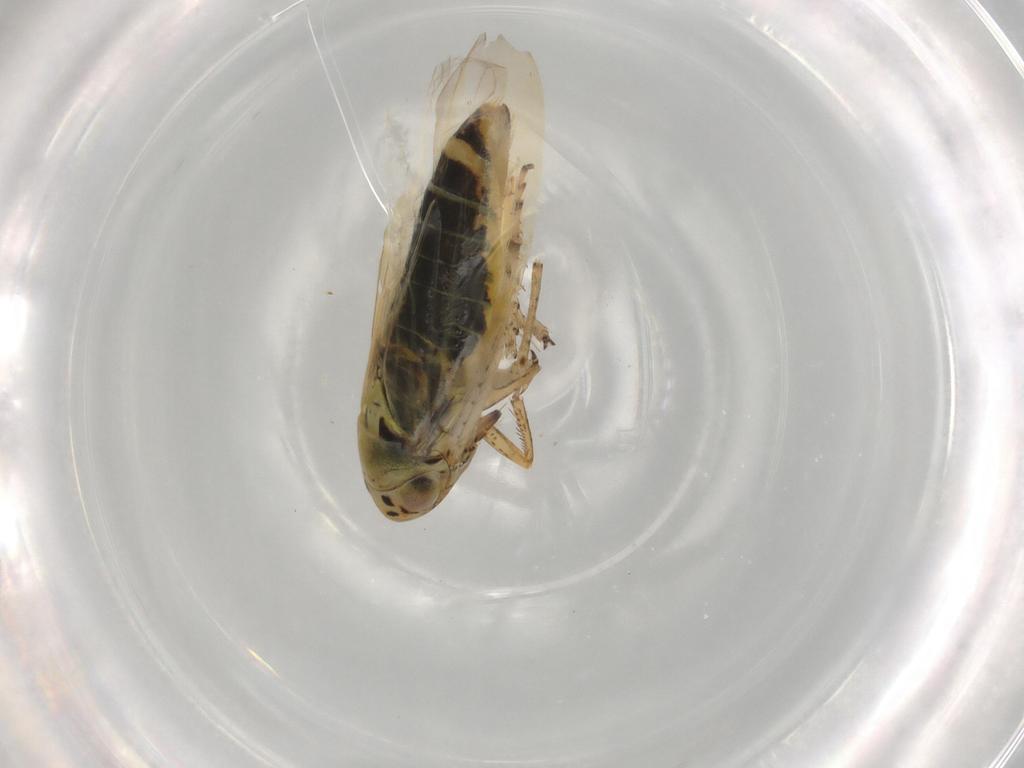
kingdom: Animalia
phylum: Arthropoda
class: Insecta
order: Hemiptera
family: Cicadellidae
